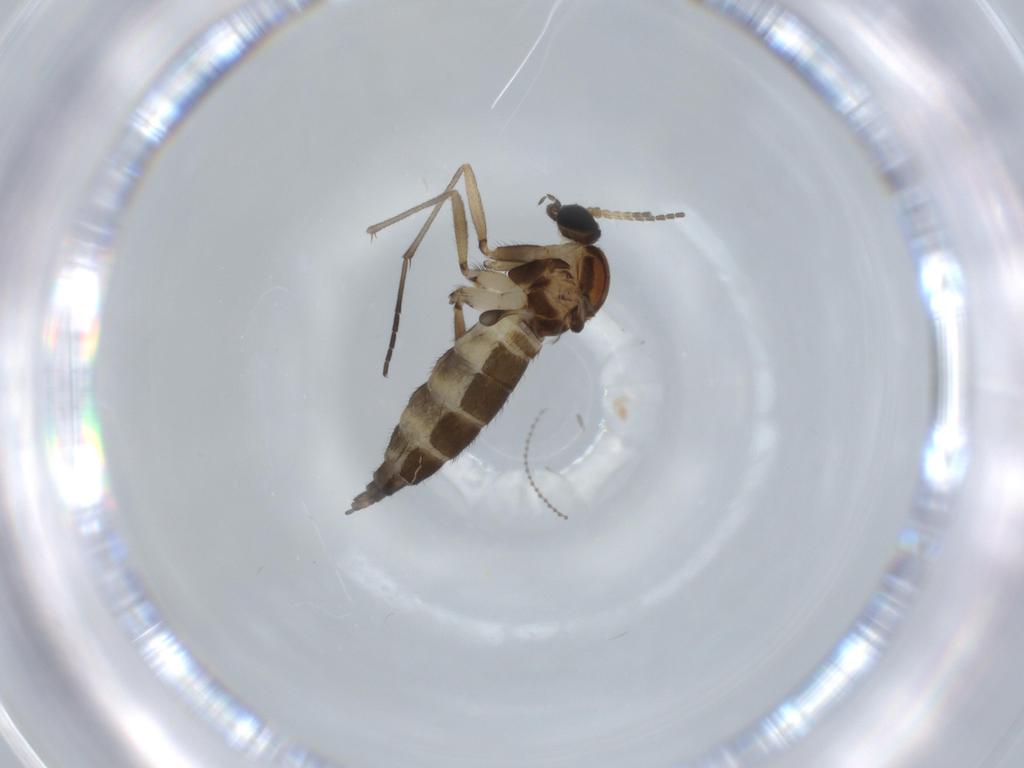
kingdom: Animalia
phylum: Arthropoda
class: Insecta
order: Diptera
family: Cecidomyiidae
